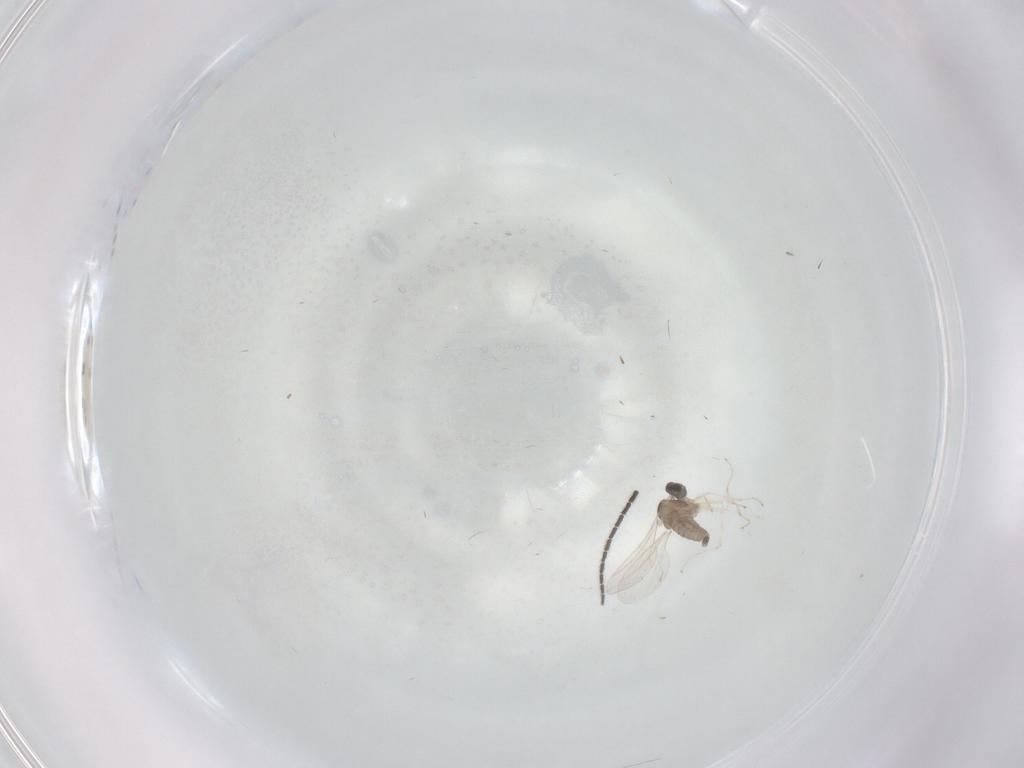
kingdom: Animalia
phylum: Arthropoda
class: Insecta
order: Diptera
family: Cecidomyiidae
